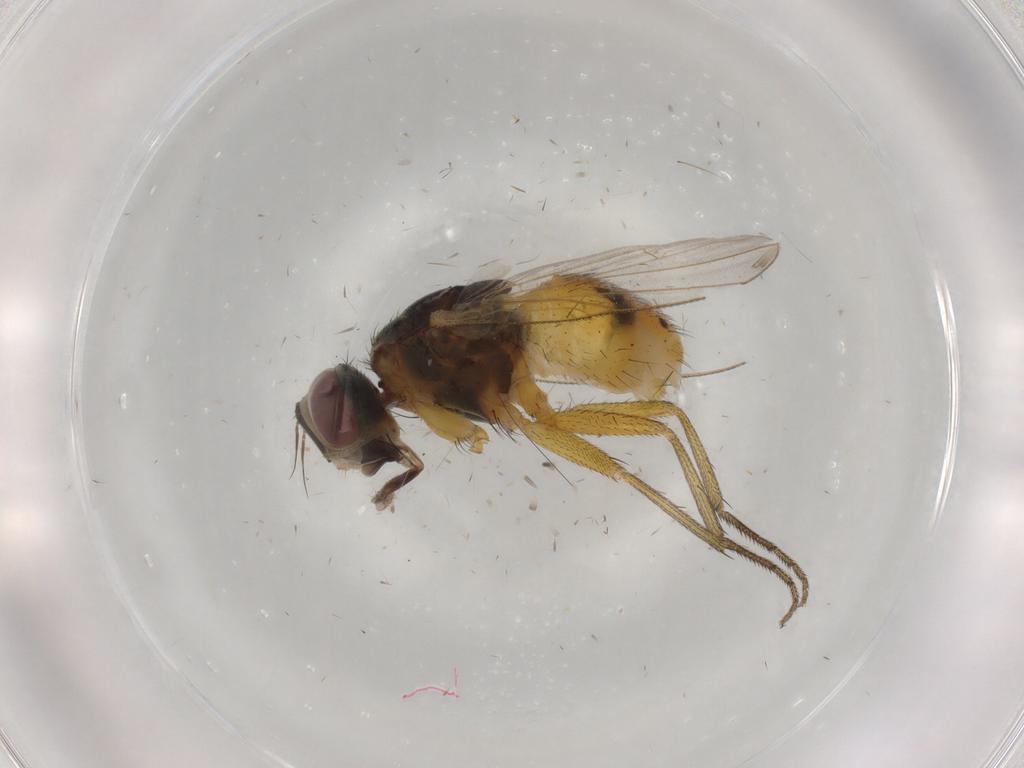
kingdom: Animalia
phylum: Arthropoda
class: Insecta
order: Diptera
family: Muscidae
